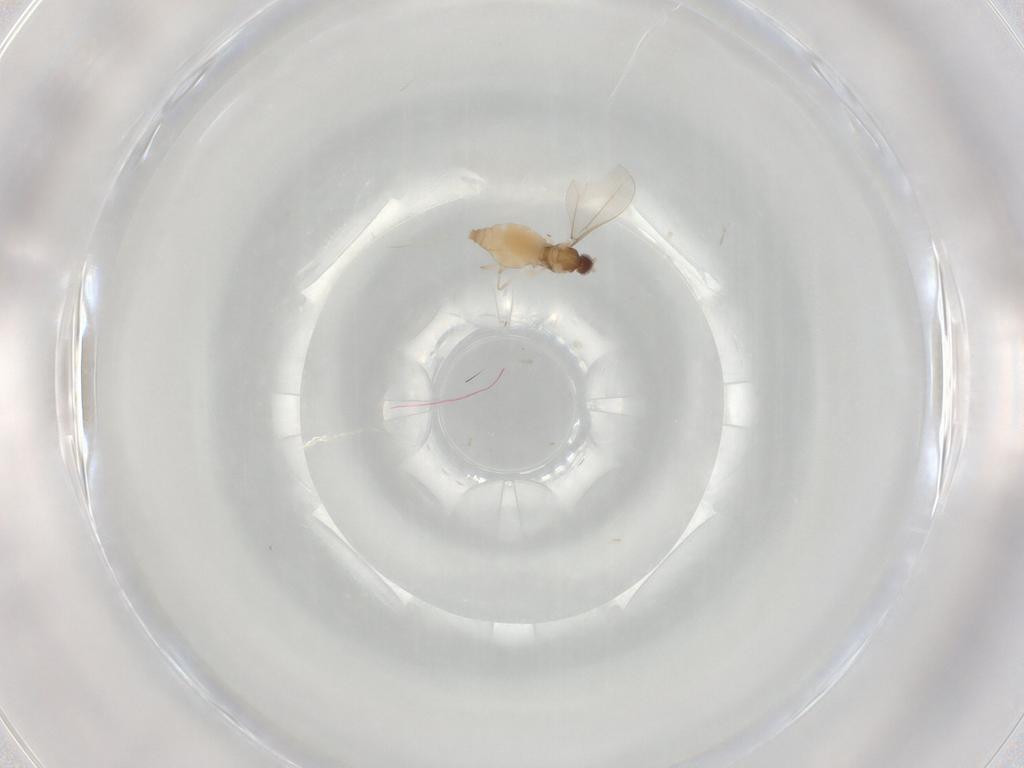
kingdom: Animalia
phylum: Arthropoda
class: Insecta
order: Diptera
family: Cecidomyiidae
